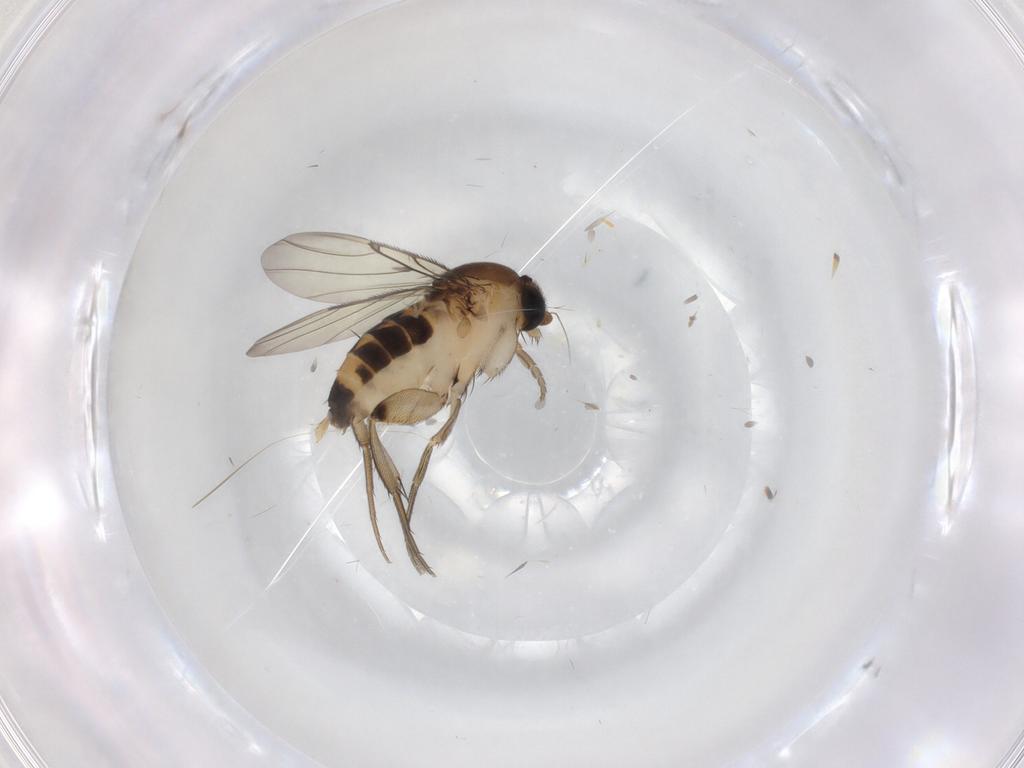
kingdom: Animalia
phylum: Arthropoda
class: Insecta
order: Diptera
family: Phoridae
